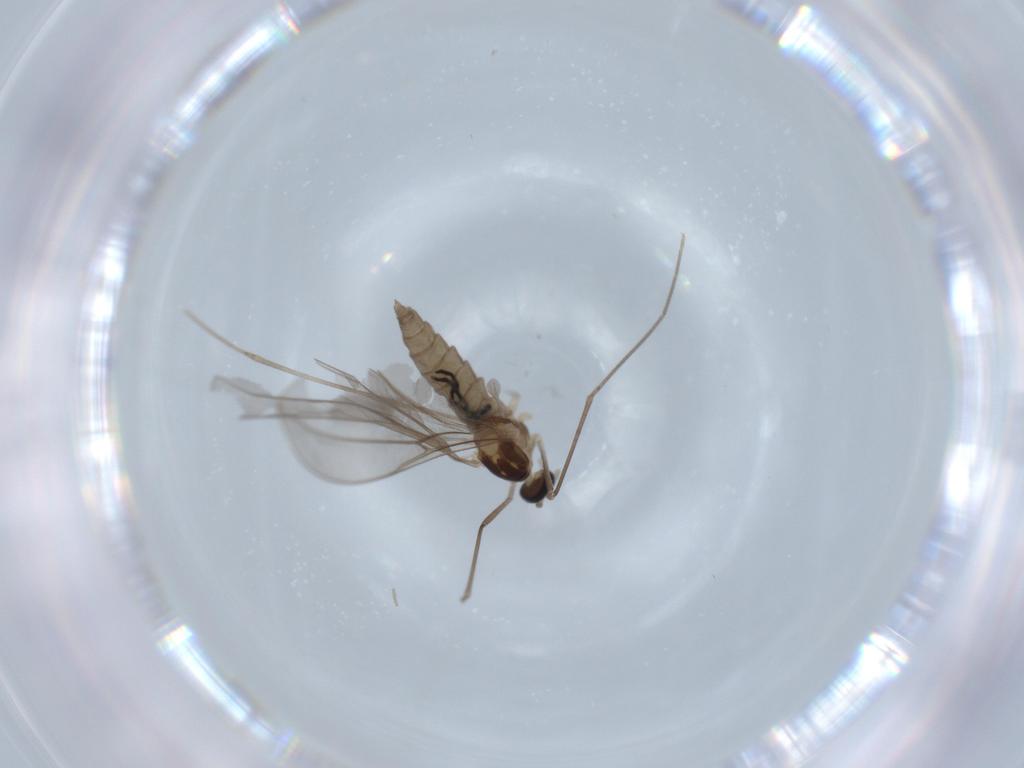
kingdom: Animalia
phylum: Arthropoda
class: Insecta
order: Diptera
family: Cecidomyiidae
